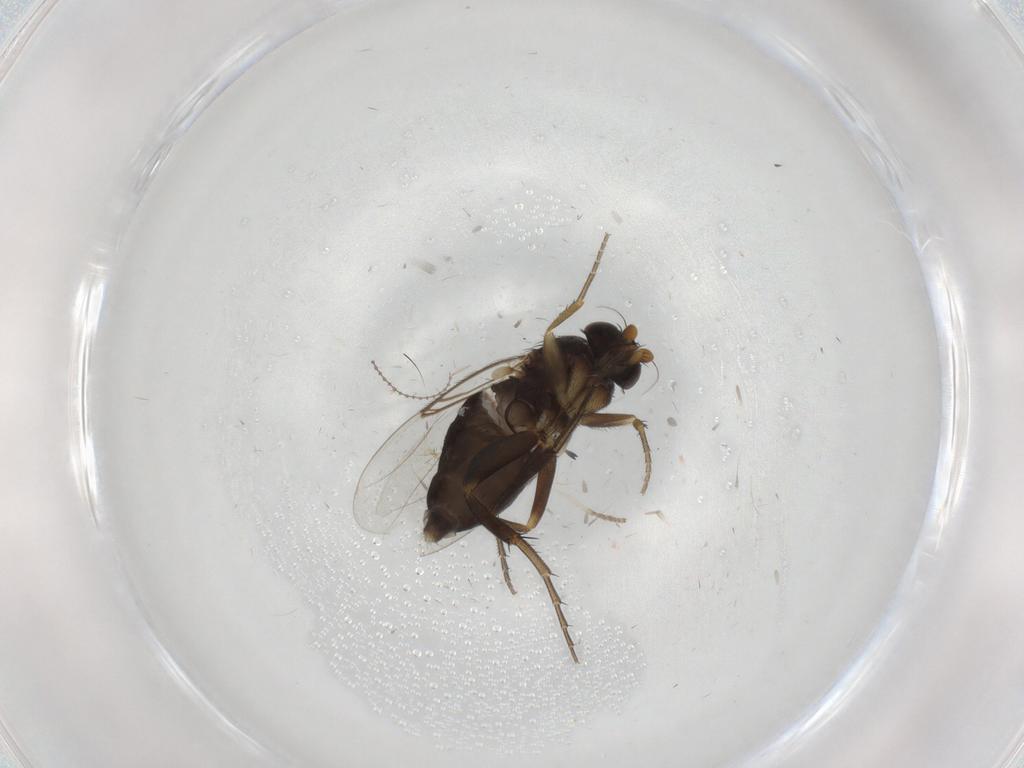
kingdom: Animalia
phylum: Arthropoda
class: Insecta
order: Diptera
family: Phoridae
